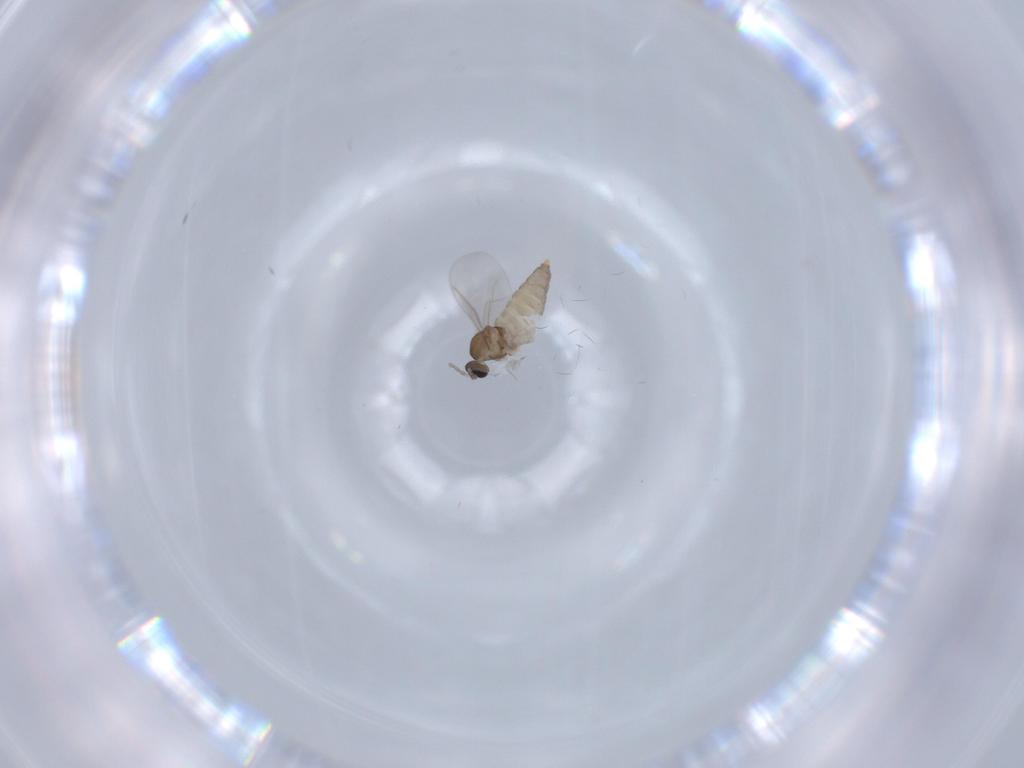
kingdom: Animalia
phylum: Arthropoda
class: Insecta
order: Diptera
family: Cecidomyiidae
